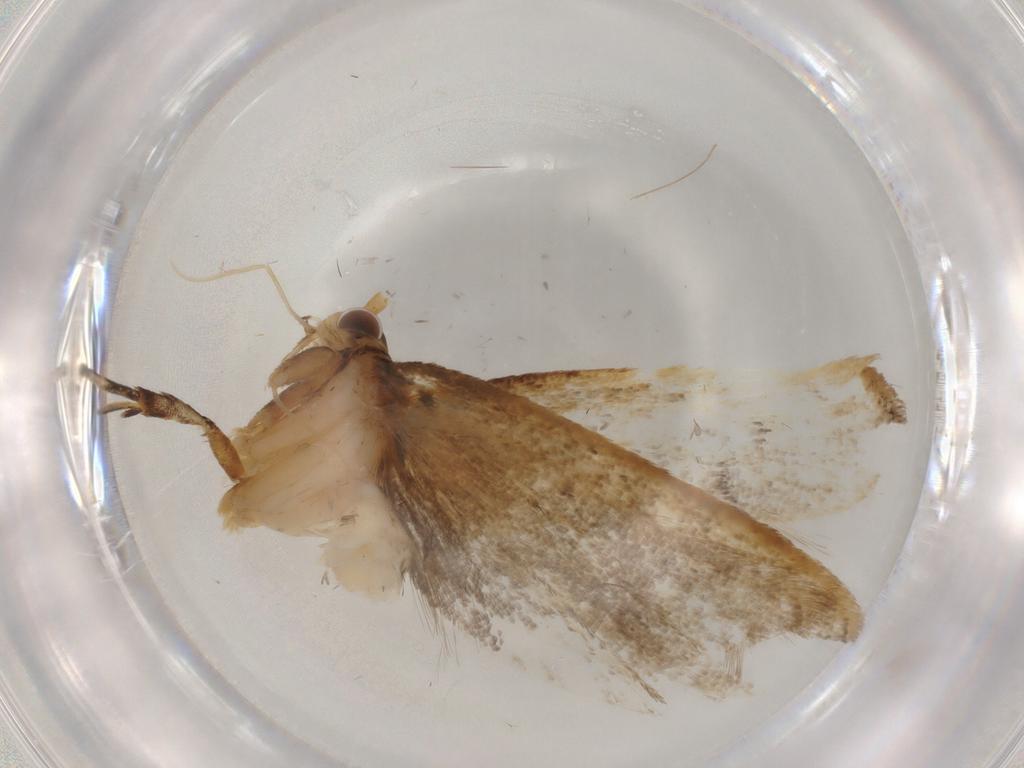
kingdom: Animalia
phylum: Arthropoda
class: Insecta
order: Lepidoptera
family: Lecithoceridae
